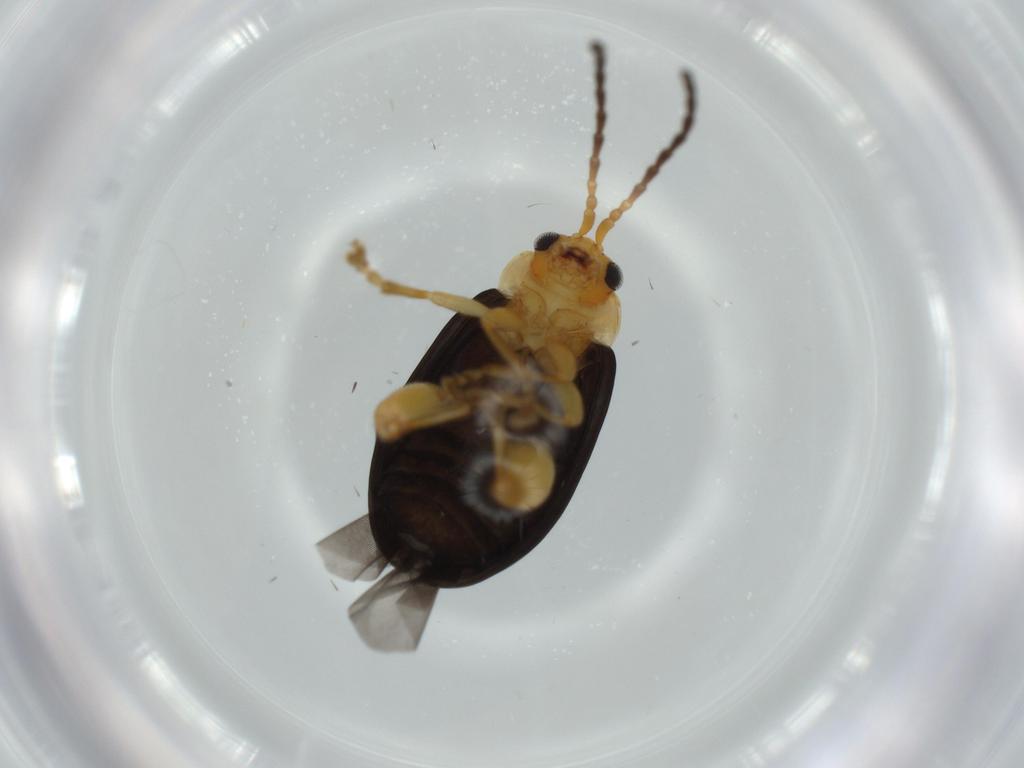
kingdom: Animalia
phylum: Arthropoda
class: Insecta
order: Coleoptera
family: Chrysomelidae
